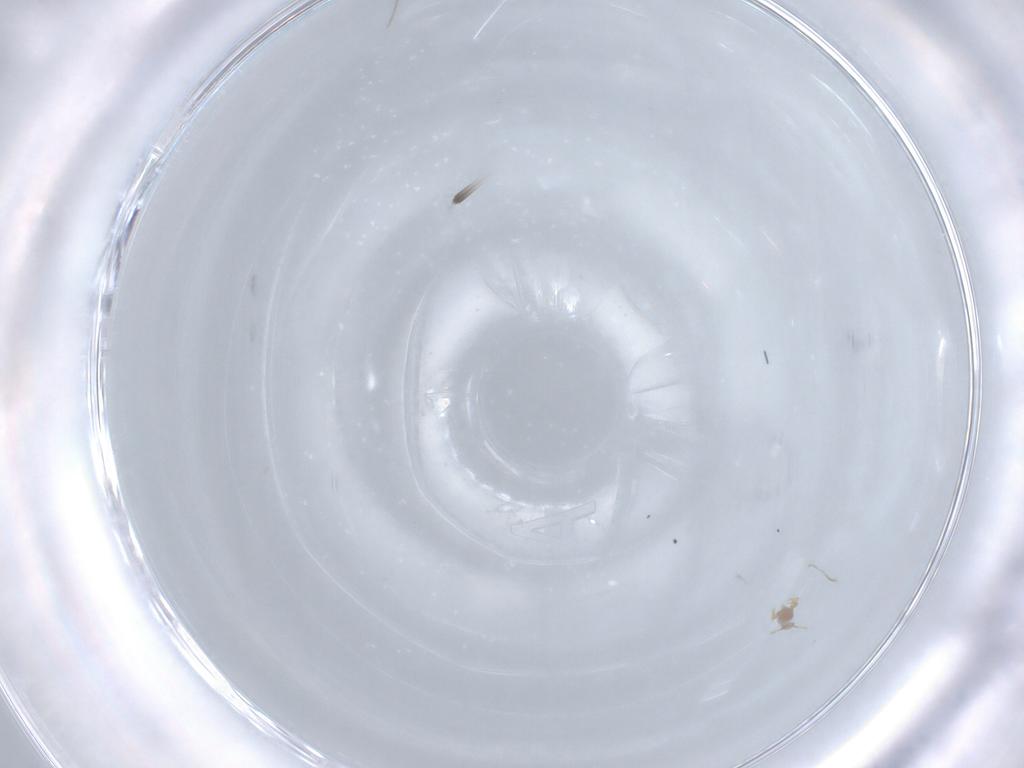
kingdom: Animalia
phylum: Arthropoda
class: Insecta
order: Diptera
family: Phoridae
